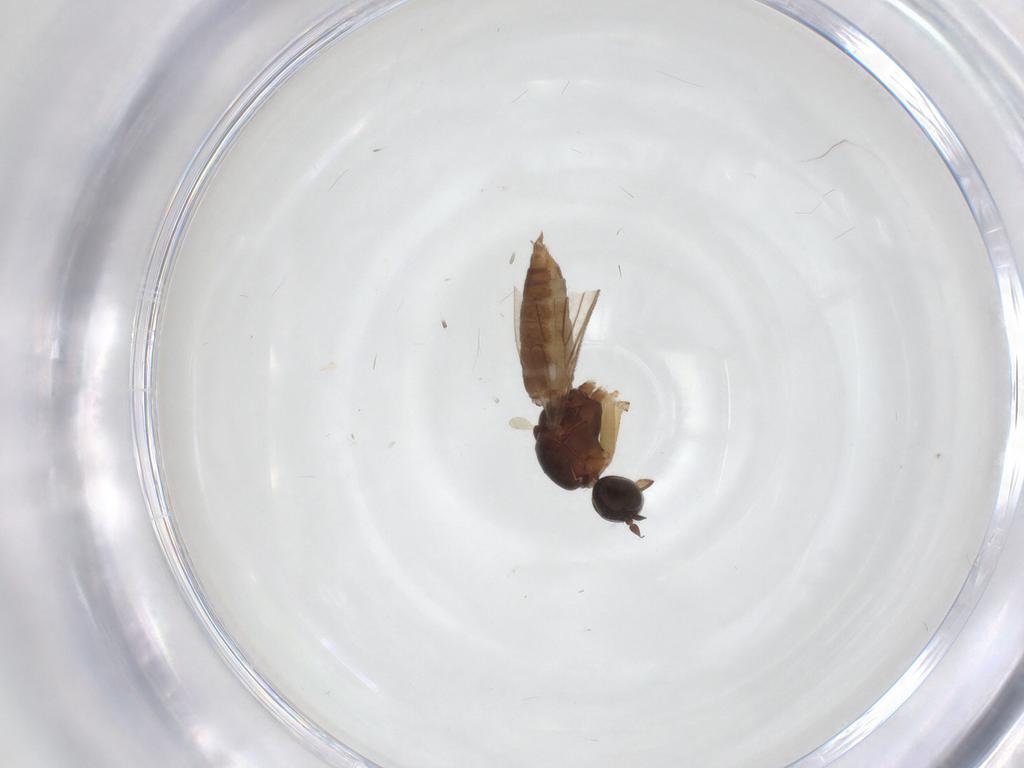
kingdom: Animalia
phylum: Arthropoda
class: Insecta
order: Diptera
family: Empididae
